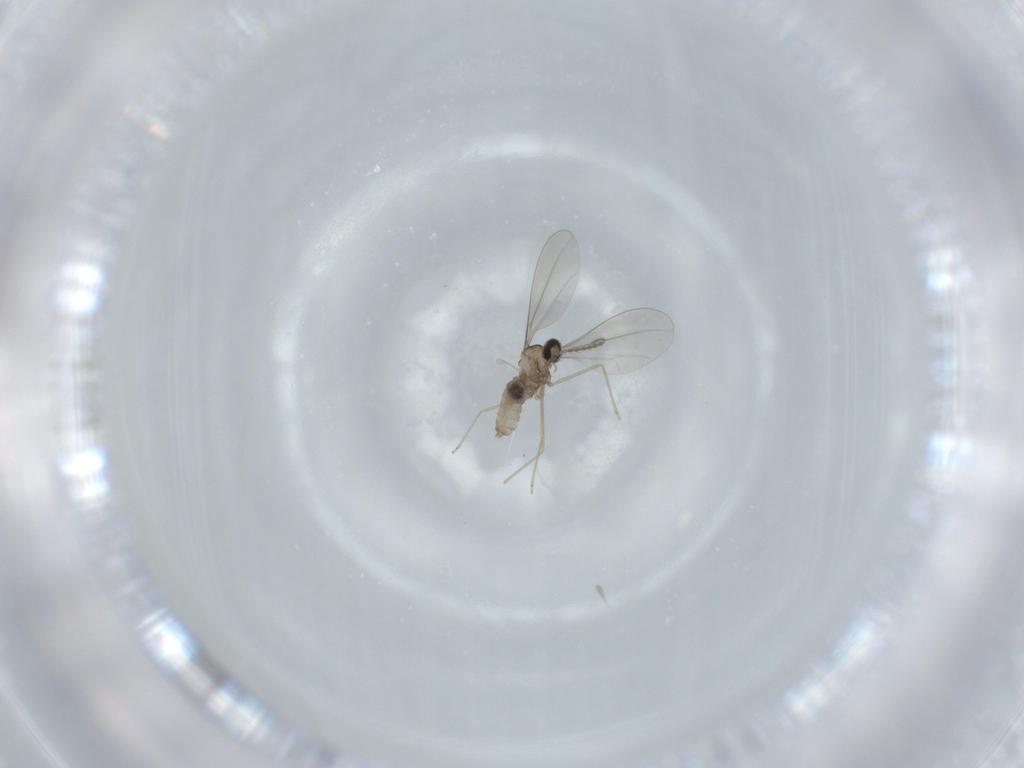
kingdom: Animalia
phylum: Arthropoda
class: Insecta
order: Diptera
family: Cecidomyiidae
